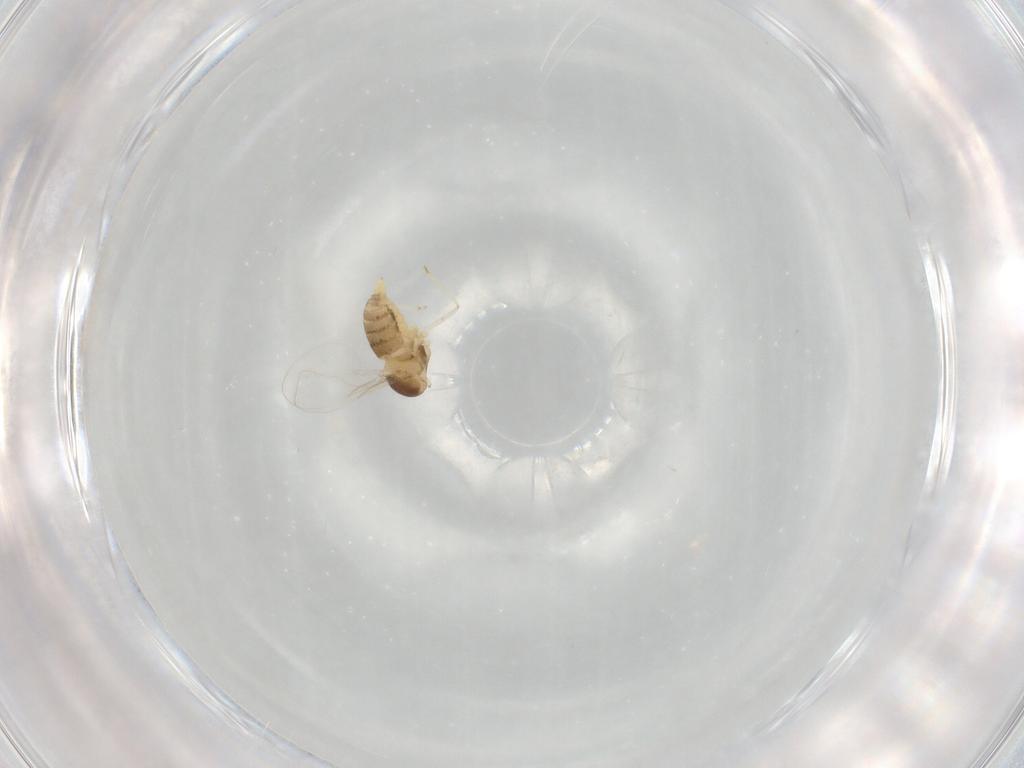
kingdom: Animalia
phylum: Arthropoda
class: Insecta
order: Diptera
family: Cecidomyiidae
